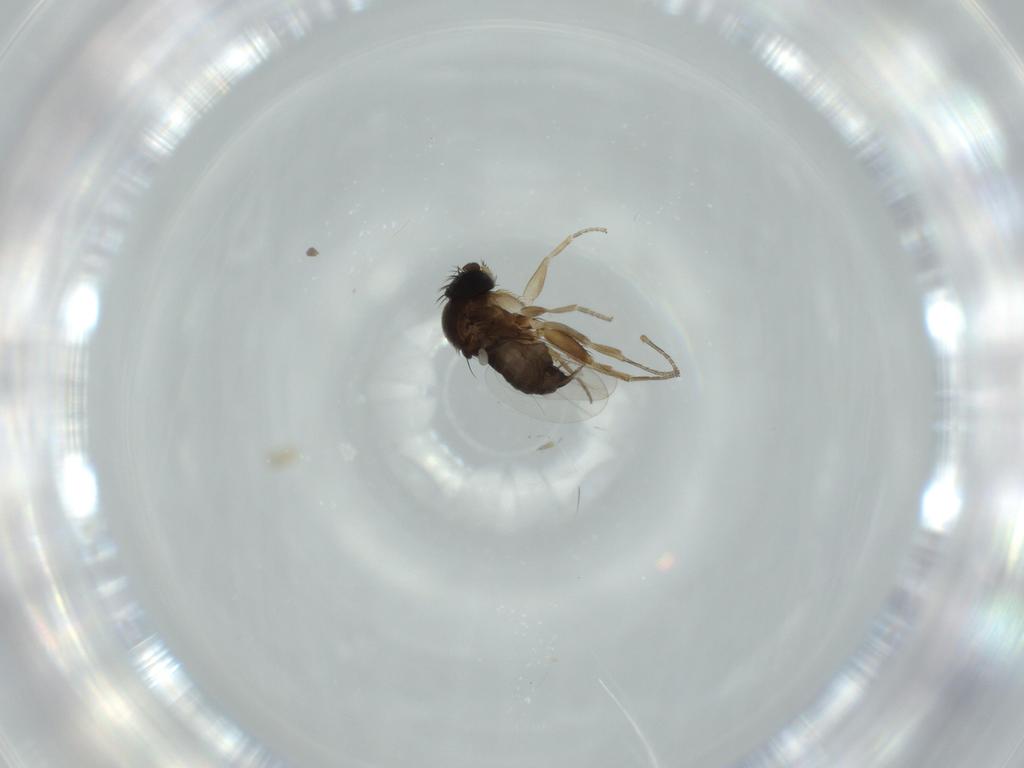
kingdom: Animalia
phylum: Arthropoda
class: Insecta
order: Diptera
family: Phoridae
